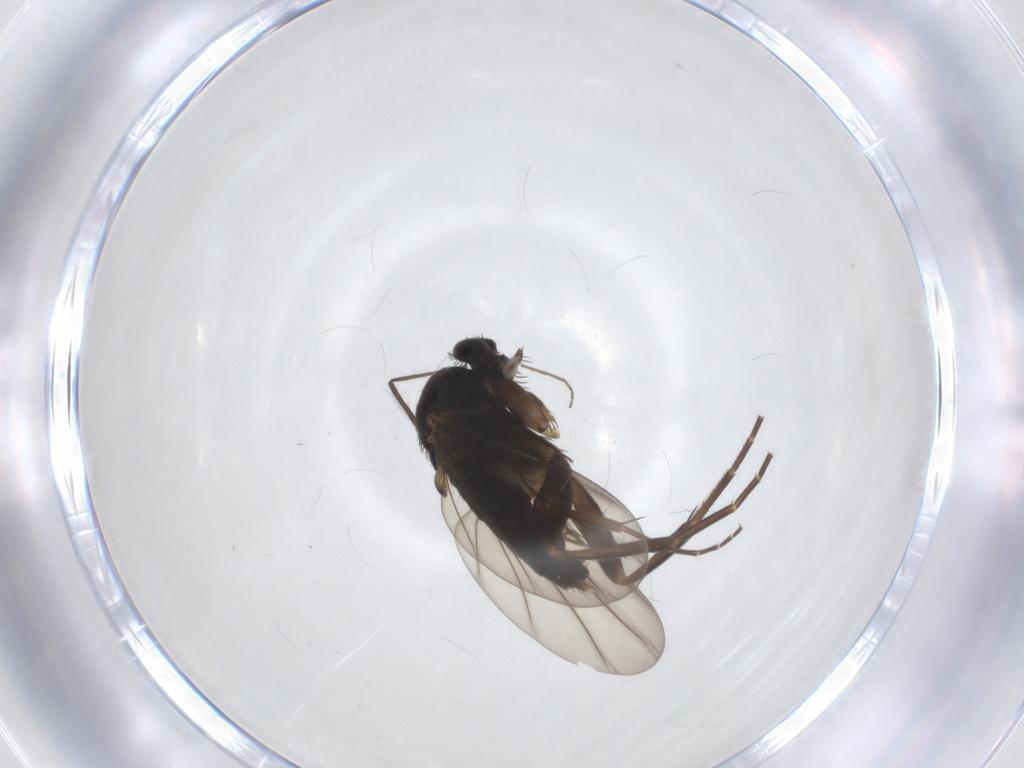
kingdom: Animalia
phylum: Arthropoda
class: Insecta
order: Diptera
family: Phoridae
